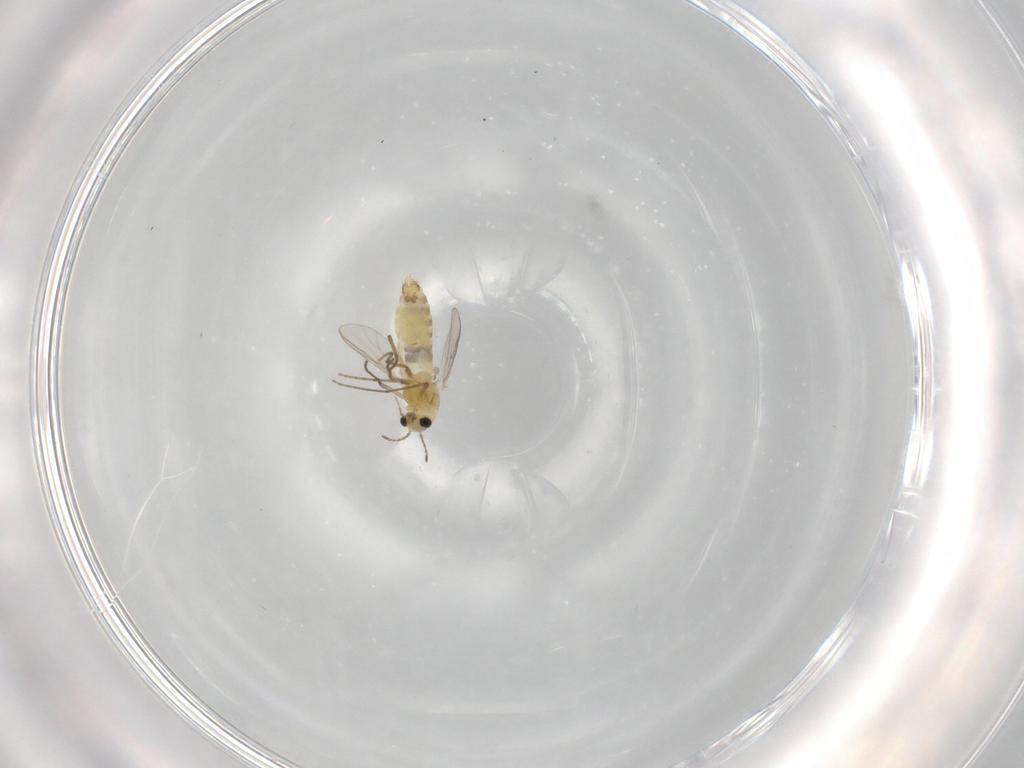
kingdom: Animalia
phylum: Arthropoda
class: Insecta
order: Diptera
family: Chironomidae
